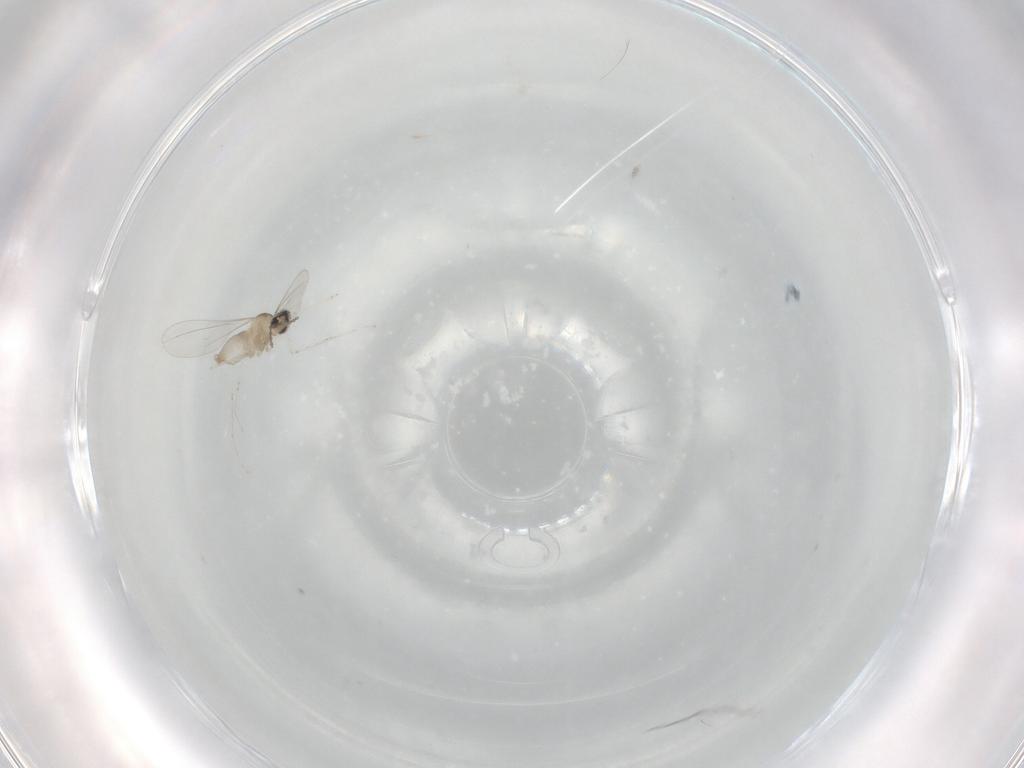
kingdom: Animalia
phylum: Arthropoda
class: Insecta
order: Diptera
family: Cecidomyiidae
